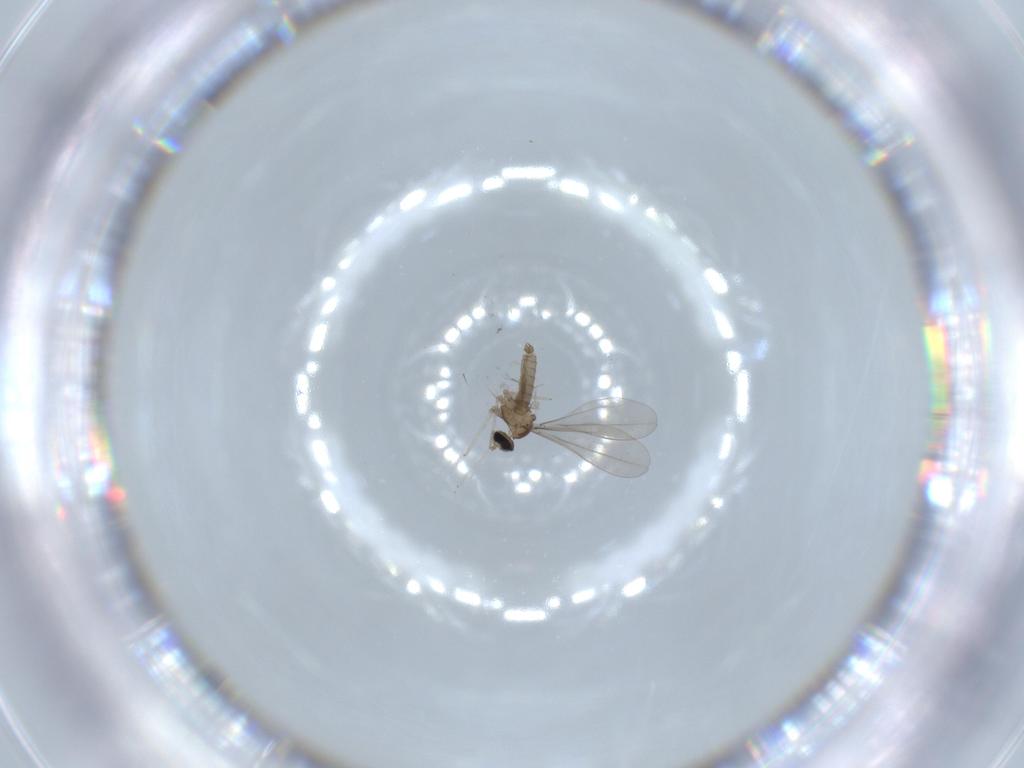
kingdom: Animalia
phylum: Arthropoda
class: Insecta
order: Diptera
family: Cecidomyiidae
